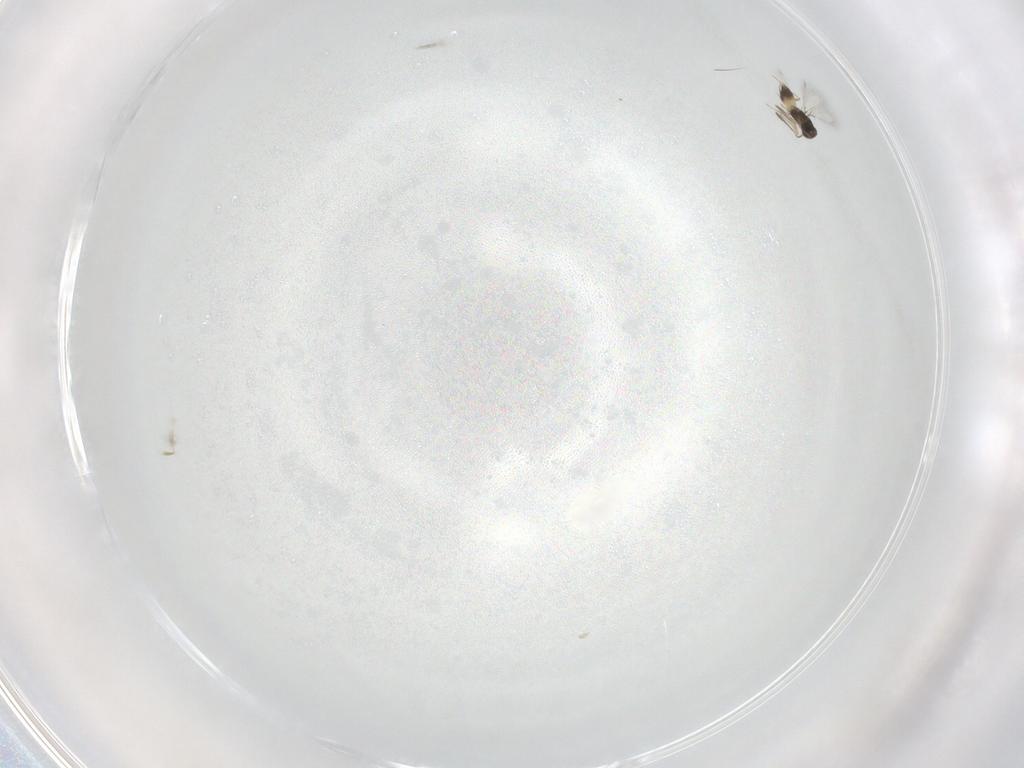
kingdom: Animalia
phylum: Arthropoda
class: Insecta
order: Hymenoptera
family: Mymaridae
